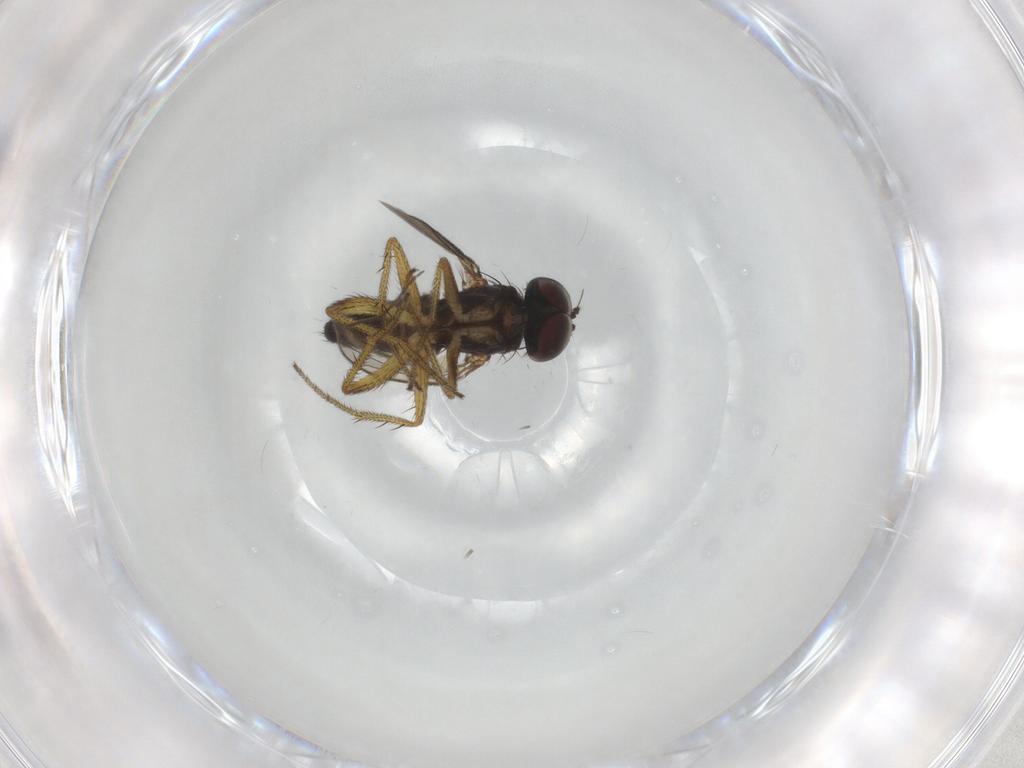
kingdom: Animalia
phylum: Arthropoda
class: Insecta
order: Diptera
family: Dolichopodidae
